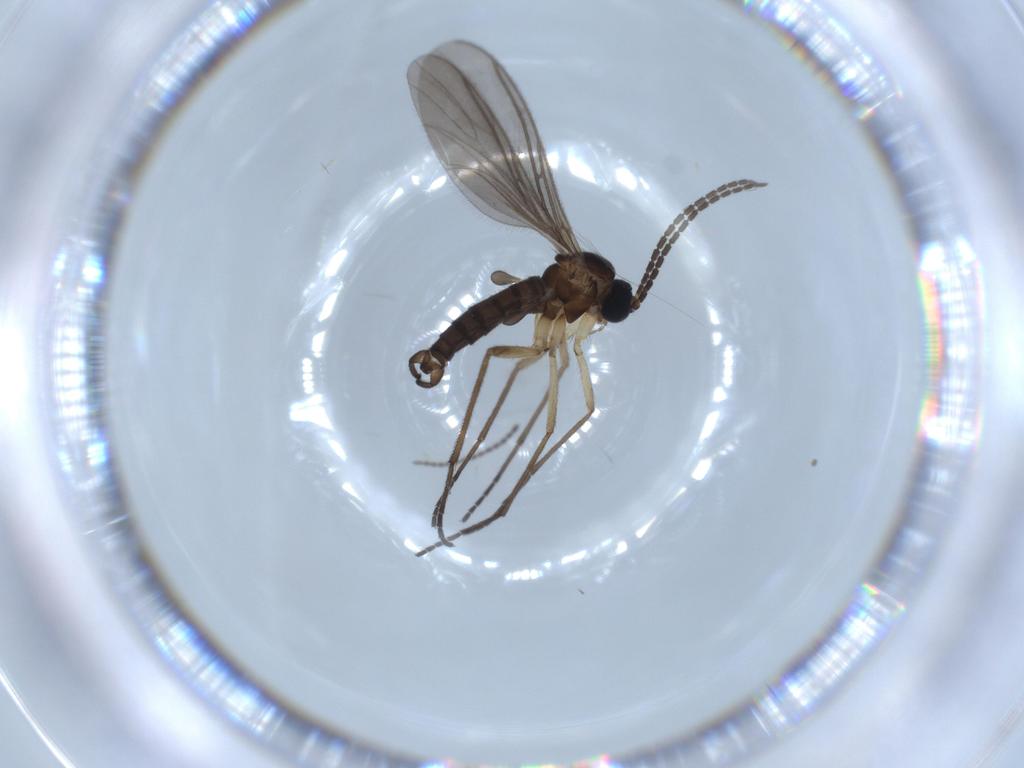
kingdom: Animalia
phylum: Arthropoda
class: Insecta
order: Diptera
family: Sciaridae
